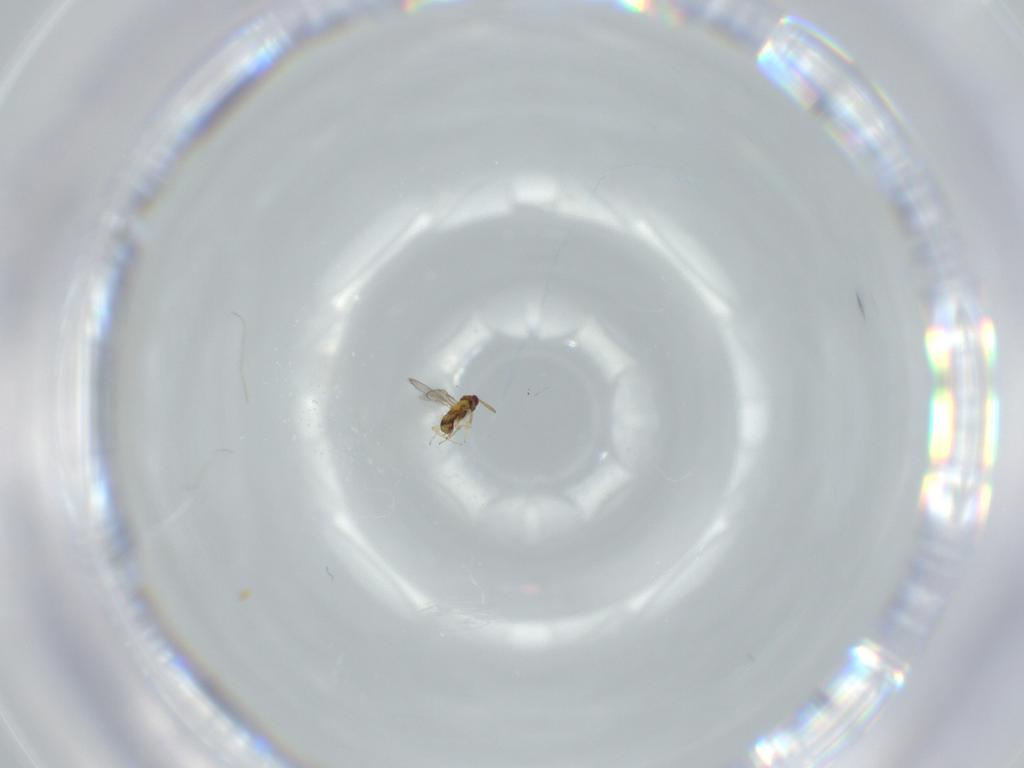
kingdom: Animalia
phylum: Arthropoda
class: Insecta
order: Hymenoptera
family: Aphelinidae
